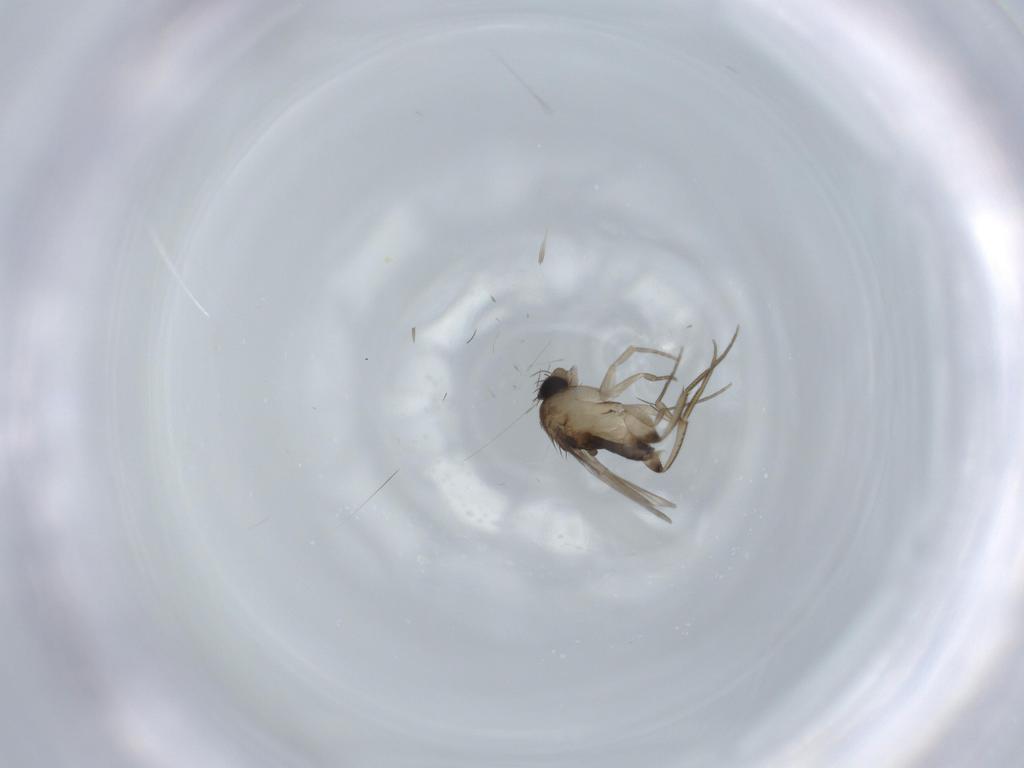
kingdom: Animalia
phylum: Arthropoda
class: Insecta
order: Diptera
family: Phoridae
